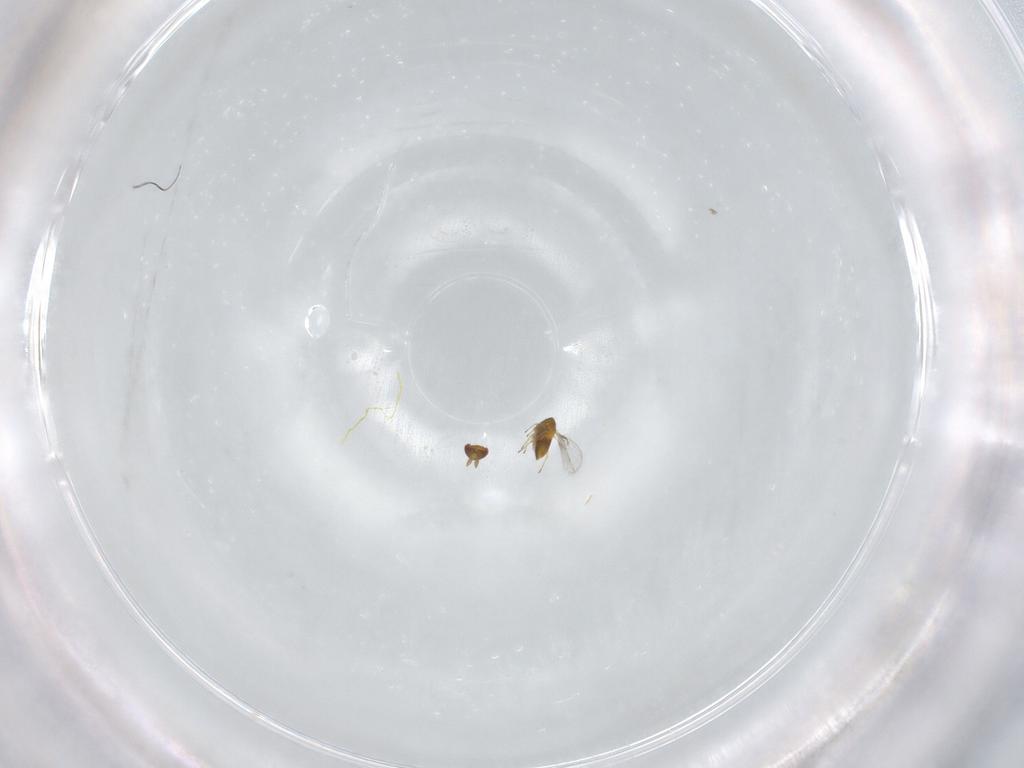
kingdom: Animalia
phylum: Arthropoda
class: Insecta
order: Hymenoptera
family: Trichogrammatidae
